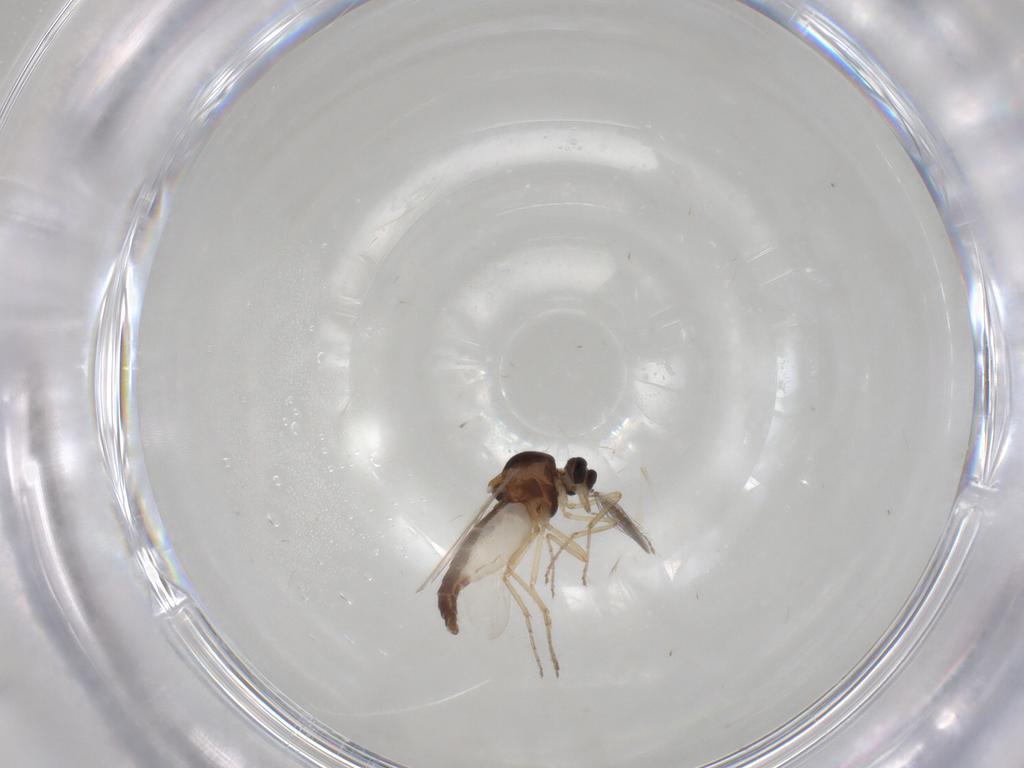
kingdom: Animalia
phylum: Arthropoda
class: Insecta
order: Diptera
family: Ceratopogonidae
